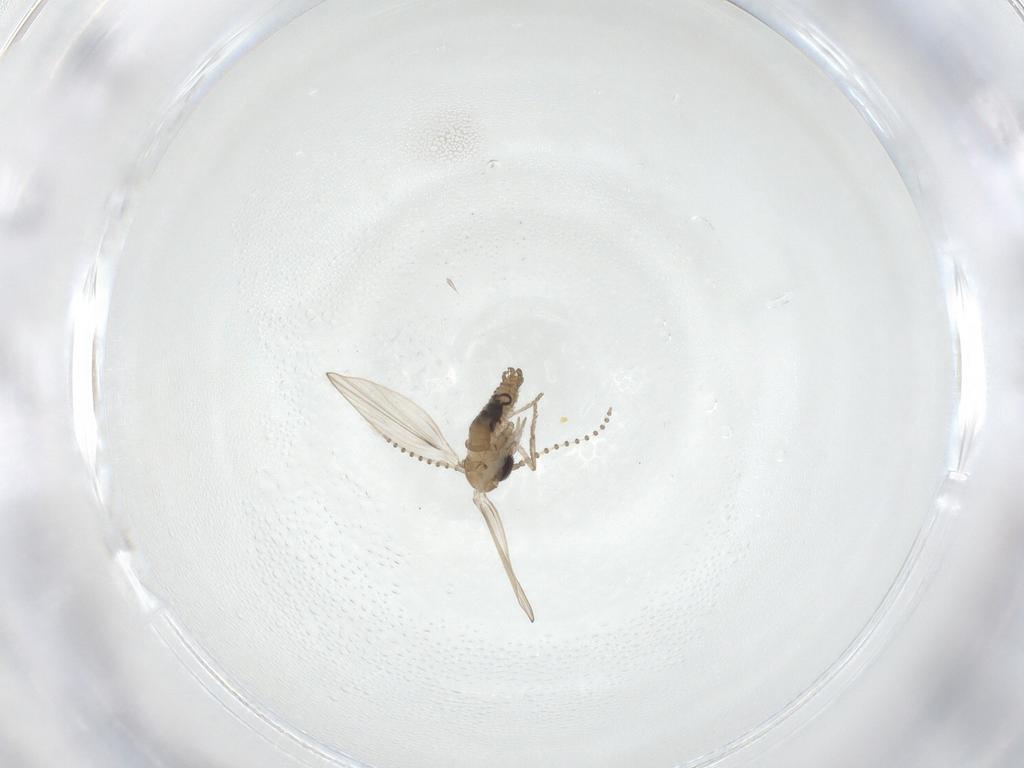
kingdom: Animalia
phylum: Arthropoda
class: Insecta
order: Diptera
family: Psychodidae
